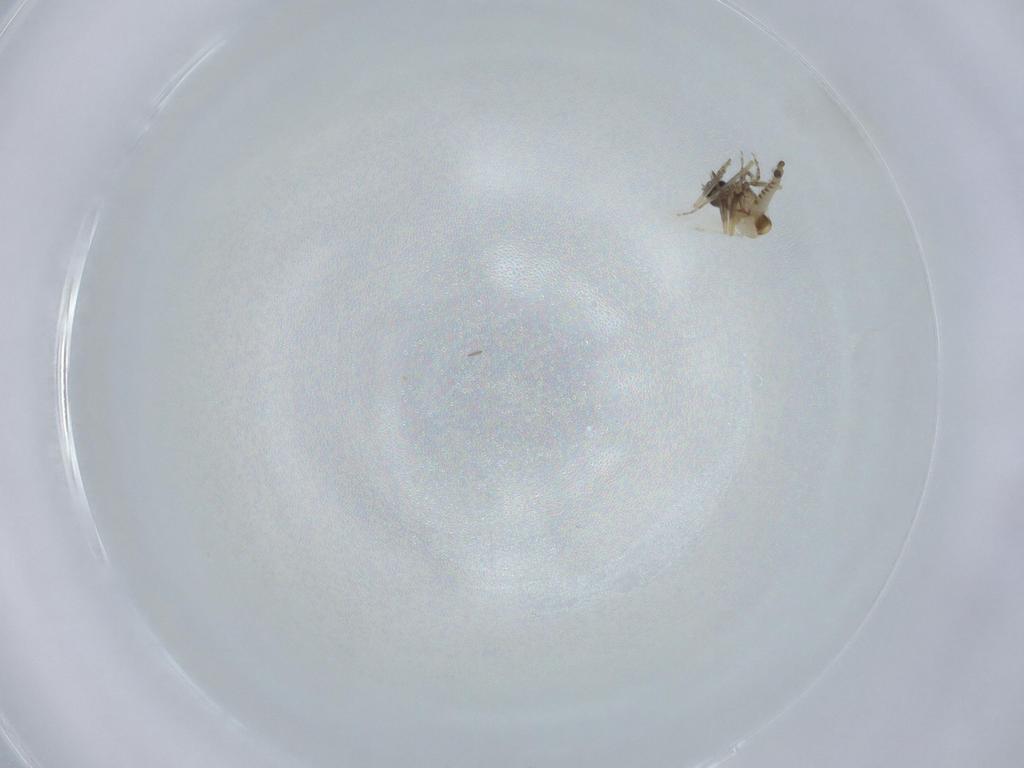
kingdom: Animalia
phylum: Arthropoda
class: Insecta
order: Diptera
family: Ceratopogonidae
